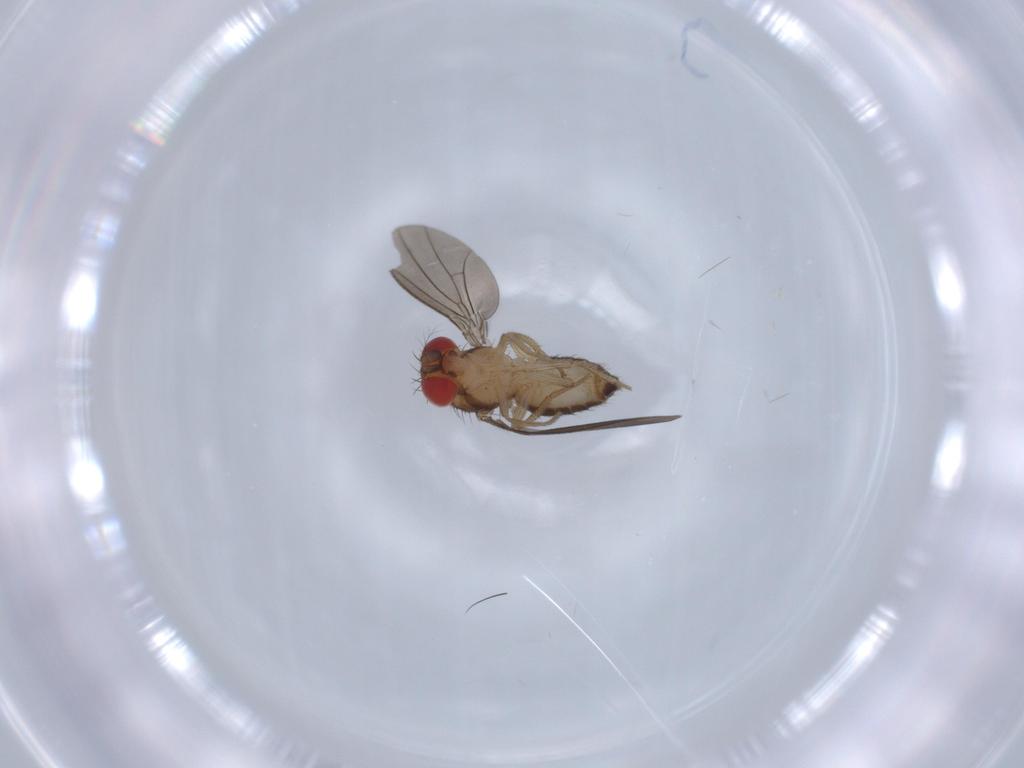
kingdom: Animalia
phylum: Arthropoda
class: Insecta
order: Diptera
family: Drosophilidae
